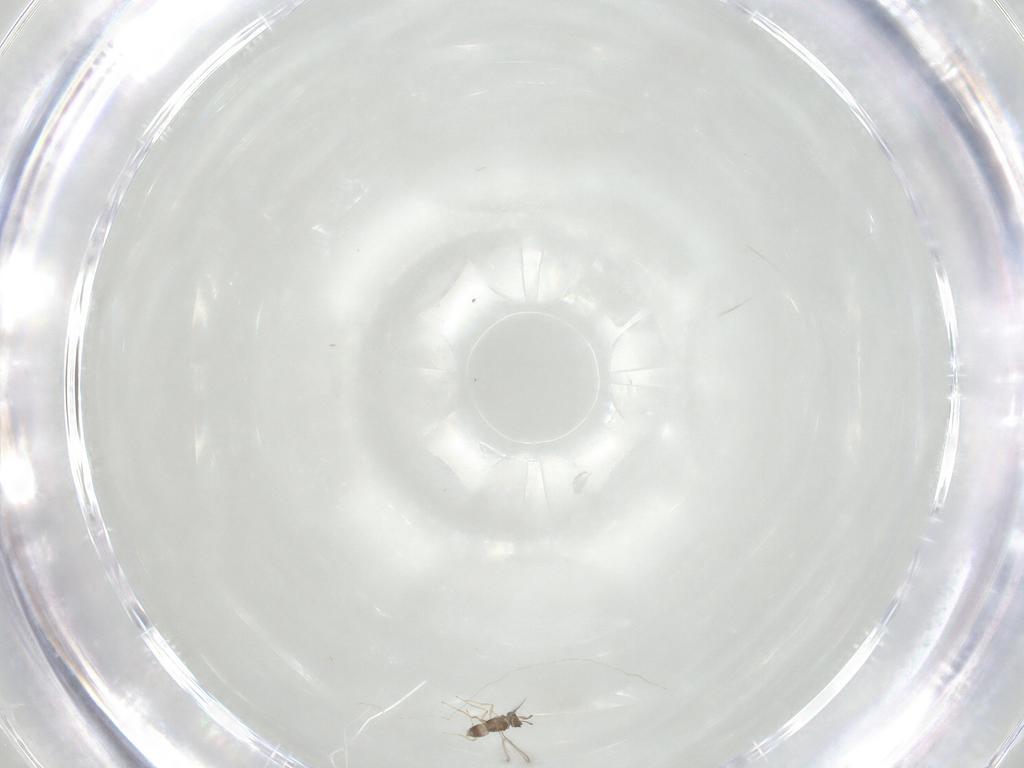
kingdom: Animalia
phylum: Arthropoda
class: Insecta
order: Hymenoptera
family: Mymaridae
